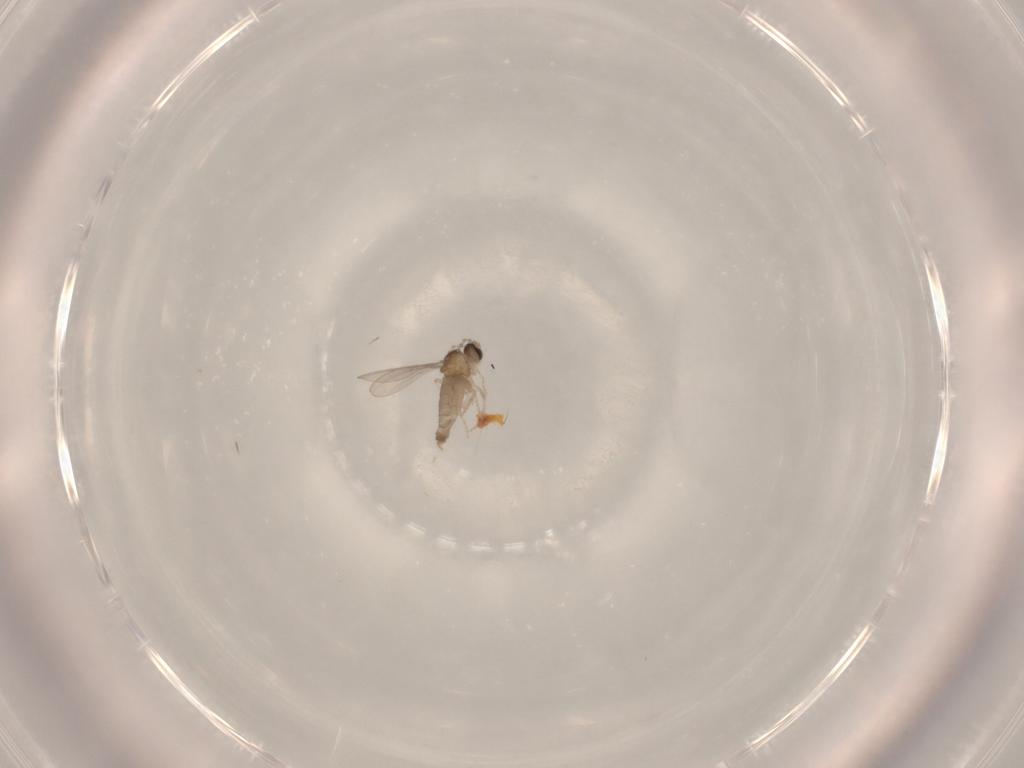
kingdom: Animalia
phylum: Arthropoda
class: Insecta
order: Diptera
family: Cecidomyiidae
